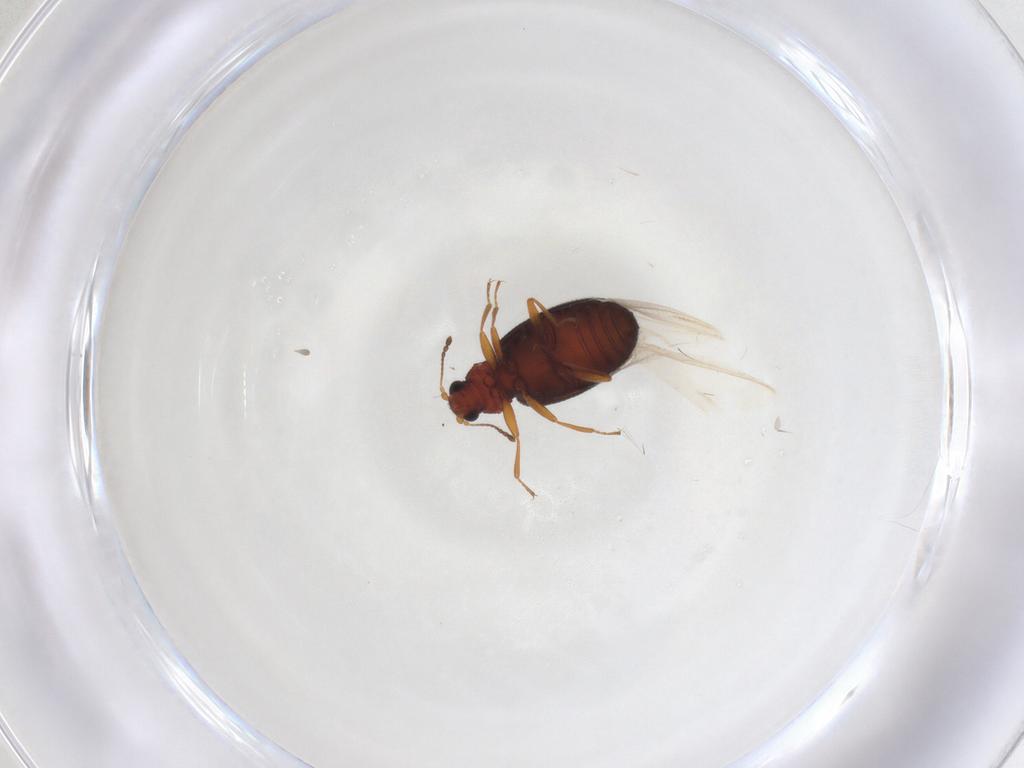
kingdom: Animalia
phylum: Arthropoda
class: Insecta
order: Coleoptera
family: Latridiidae
